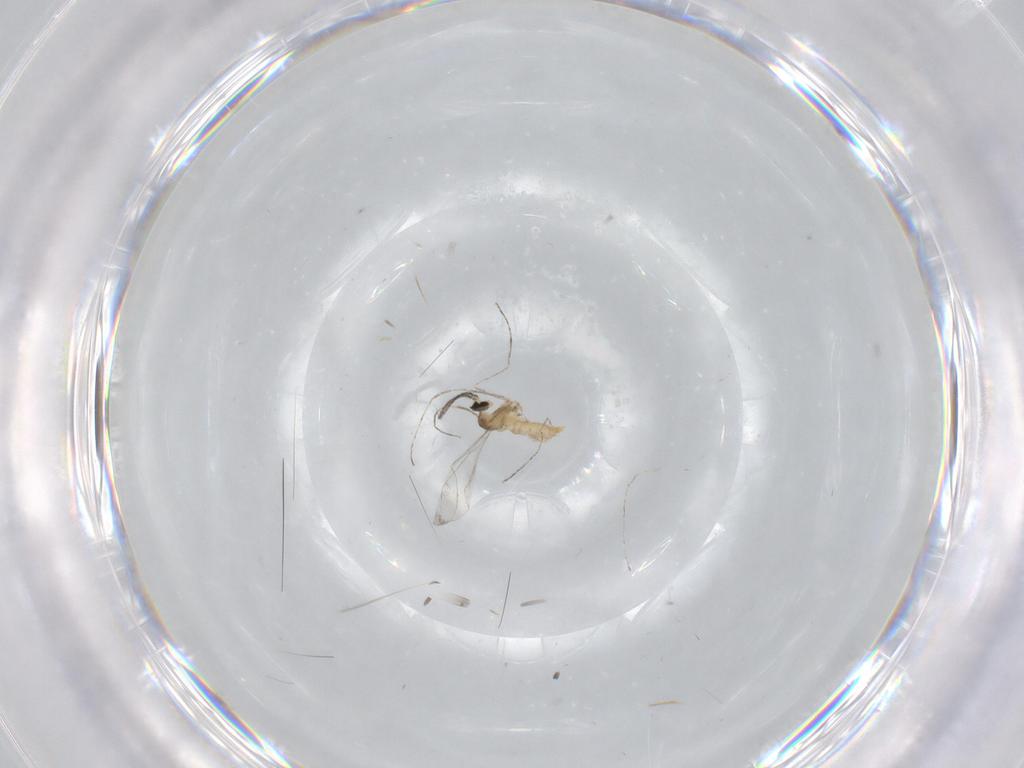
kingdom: Animalia
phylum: Arthropoda
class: Insecta
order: Diptera
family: Cecidomyiidae
